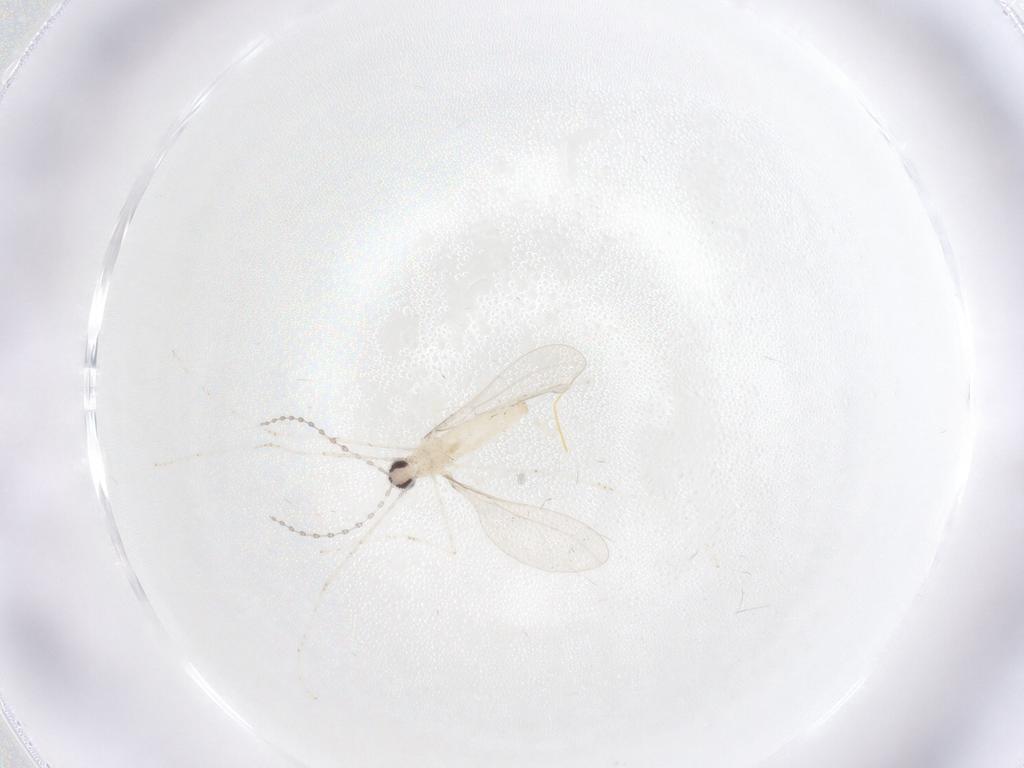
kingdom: Animalia
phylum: Arthropoda
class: Insecta
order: Diptera
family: Cecidomyiidae
